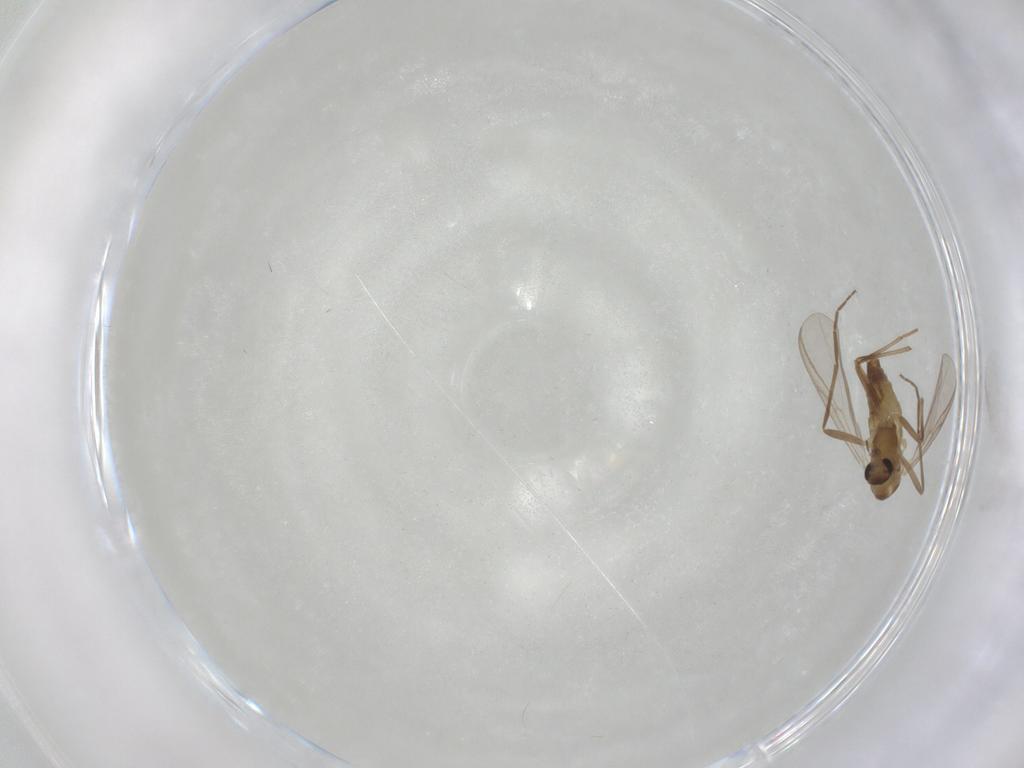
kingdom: Animalia
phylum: Arthropoda
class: Insecta
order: Diptera
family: Chironomidae
